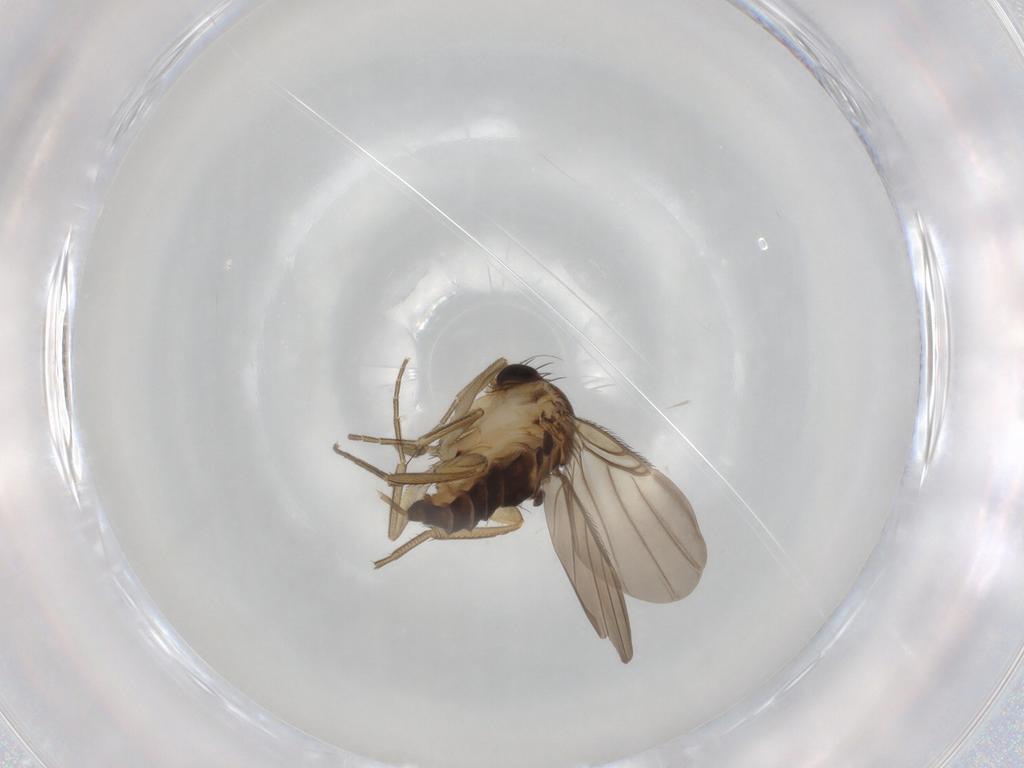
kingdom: Animalia
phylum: Arthropoda
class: Insecta
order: Diptera
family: Phoridae
